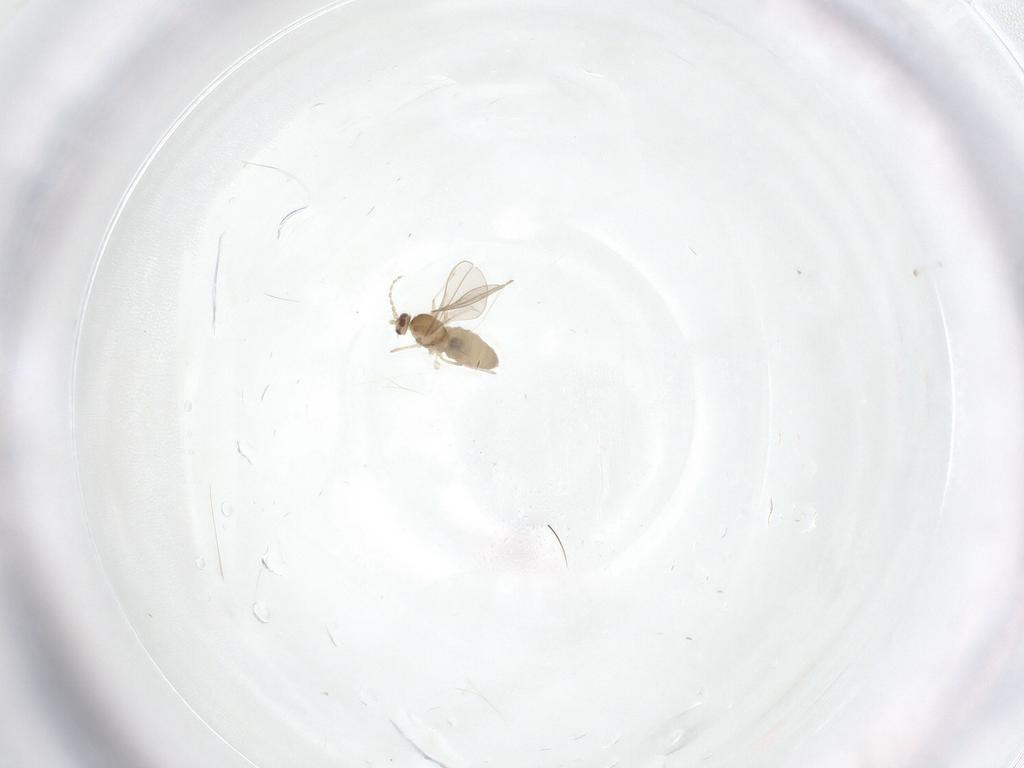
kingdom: Animalia
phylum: Arthropoda
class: Insecta
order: Diptera
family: Cecidomyiidae
